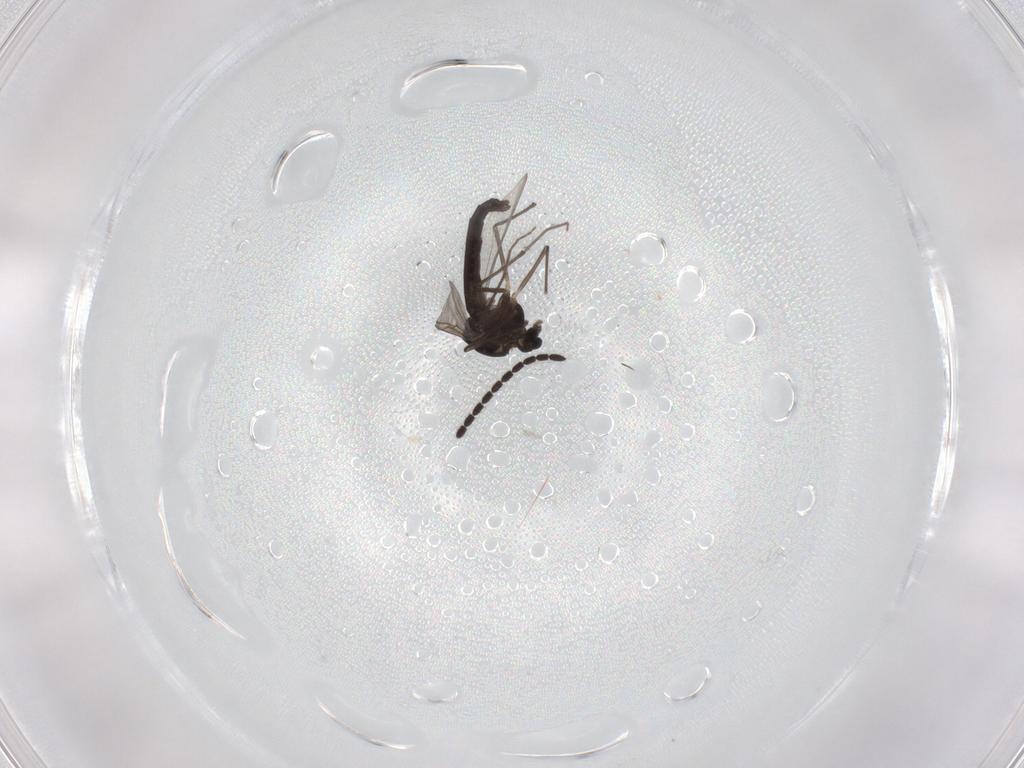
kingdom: Animalia
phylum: Arthropoda
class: Insecta
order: Diptera
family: Chironomidae
